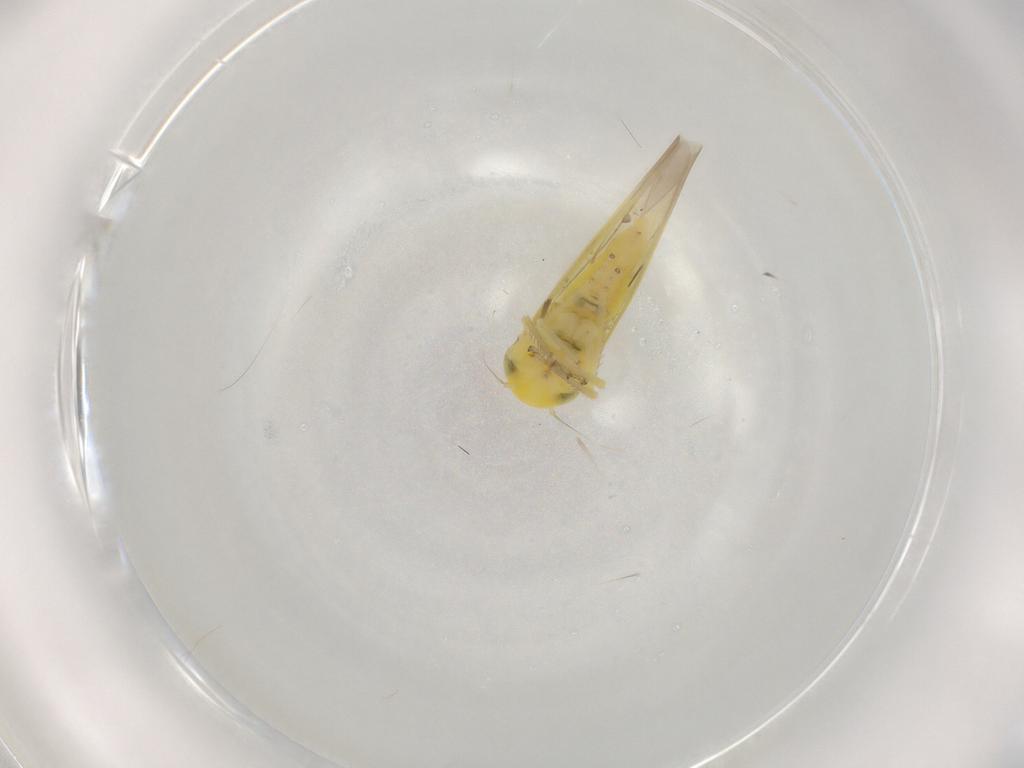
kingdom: Animalia
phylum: Arthropoda
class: Insecta
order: Hemiptera
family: Cicadellidae
